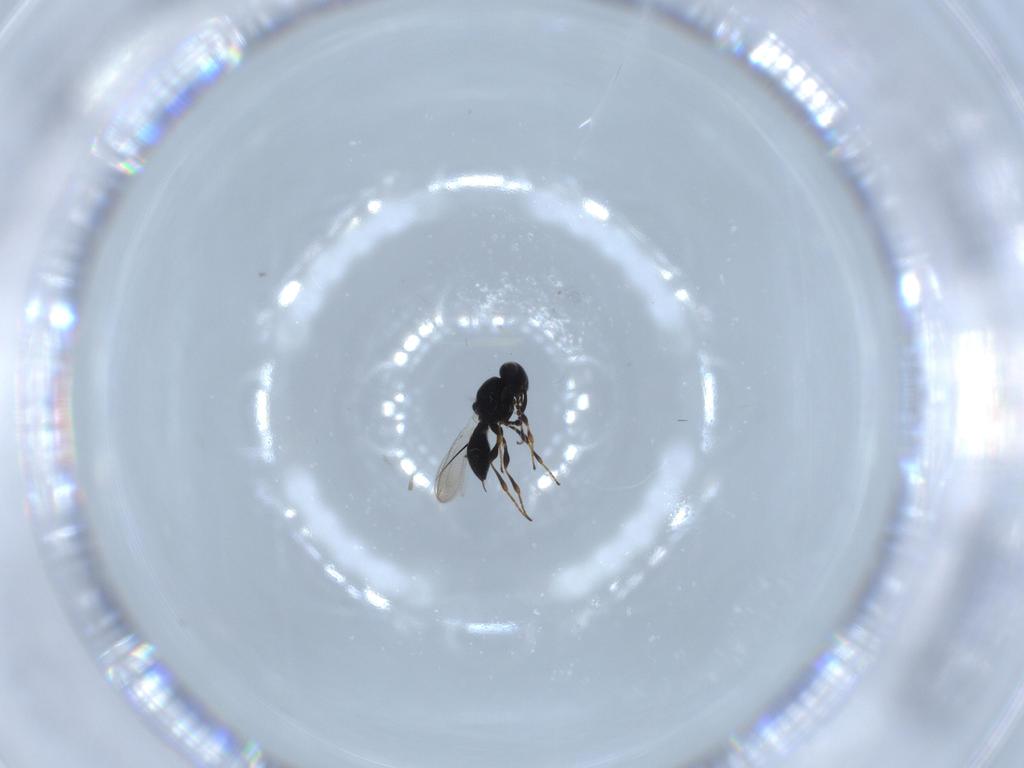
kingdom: Animalia
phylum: Arthropoda
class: Insecta
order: Hymenoptera
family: Platygastridae
